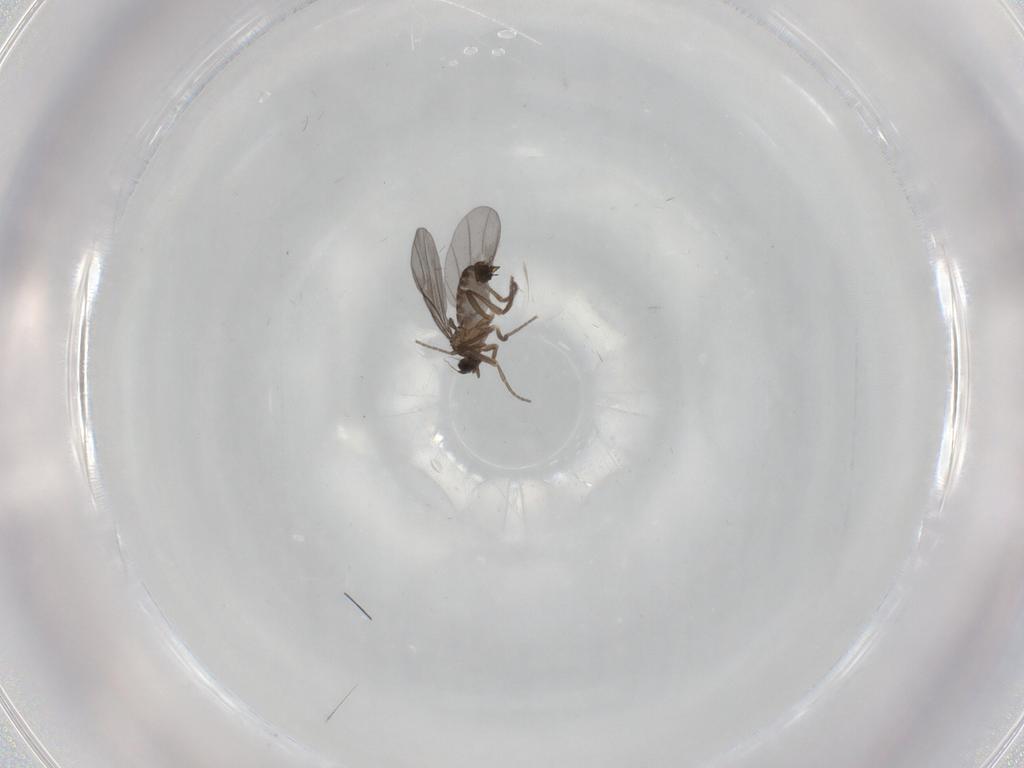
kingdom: Animalia
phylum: Arthropoda
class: Insecta
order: Diptera
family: Phoridae
